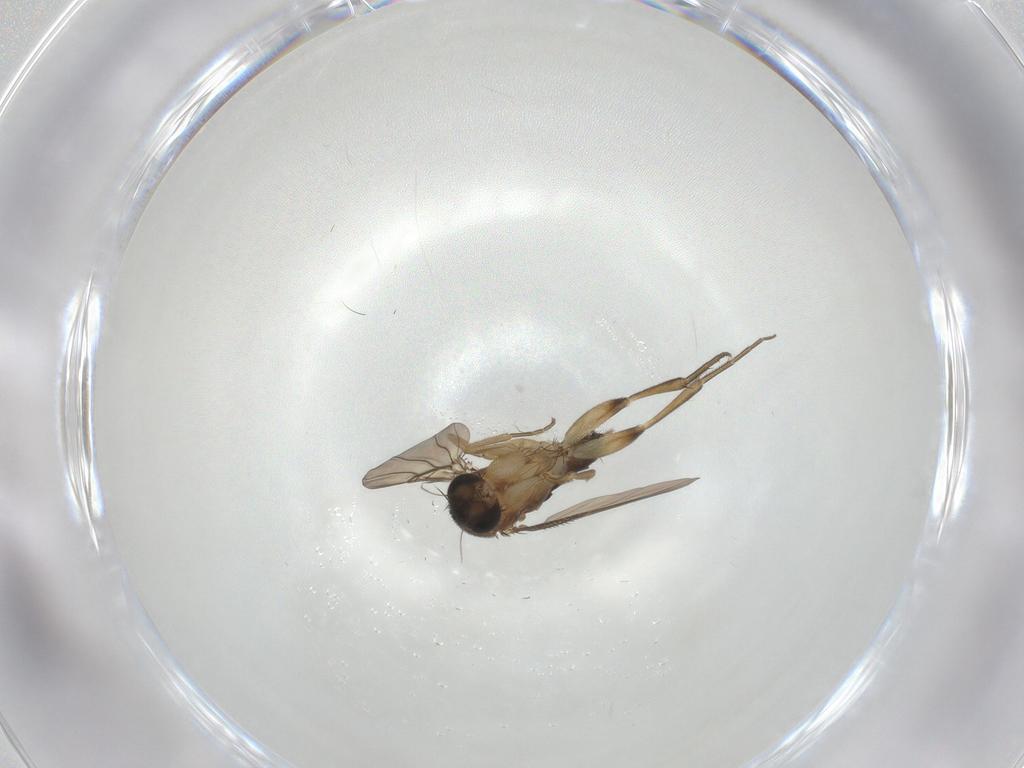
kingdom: Animalia
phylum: Arthropoda
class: Insecta
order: Diptera
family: Phoridae
